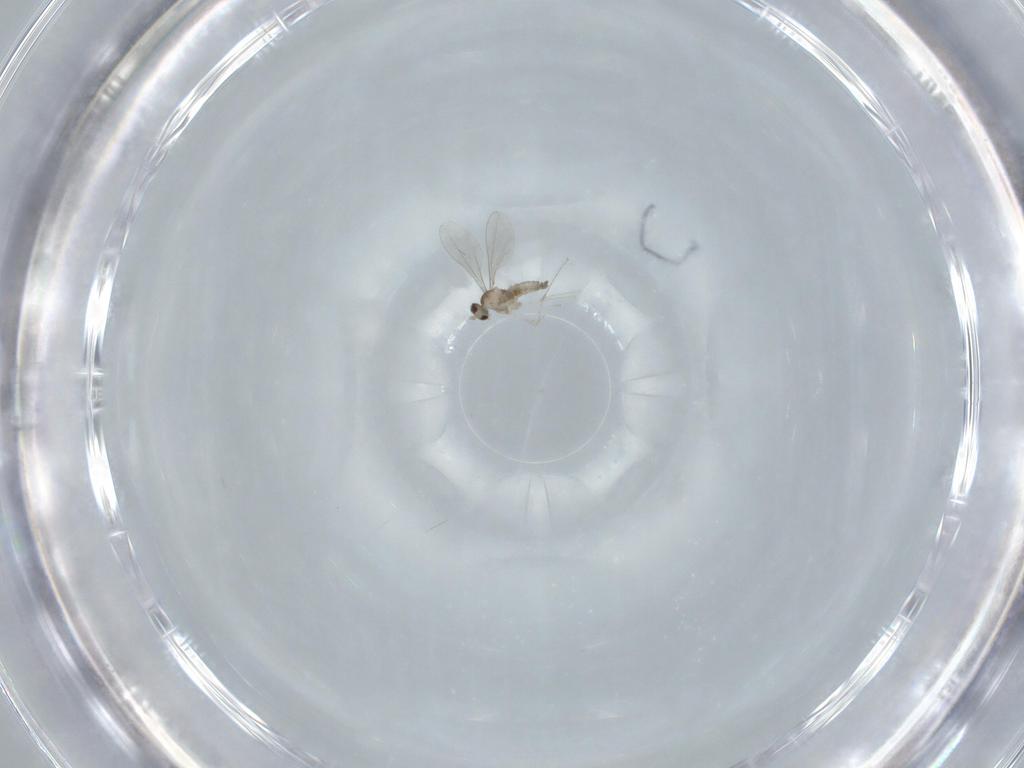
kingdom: Animalia
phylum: Arthropoda
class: Insecta
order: Diptera
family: Cecidomyiidae
